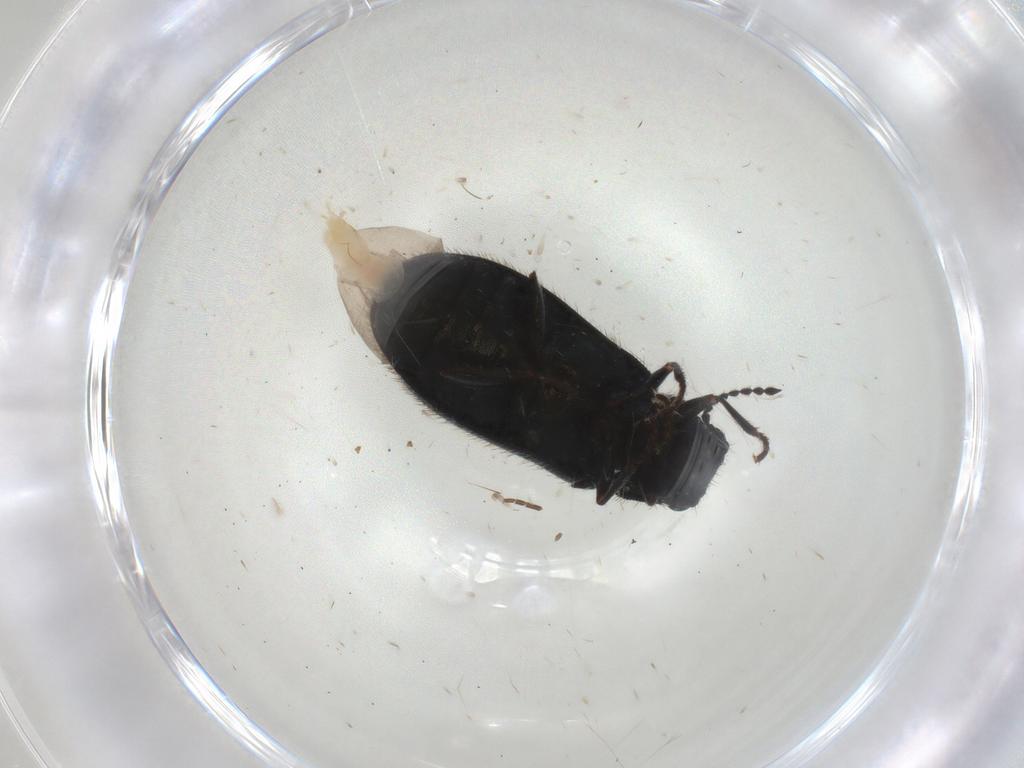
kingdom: Animalia
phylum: Arthropoda
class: Insecta
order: Coleoptera
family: Melyridae
